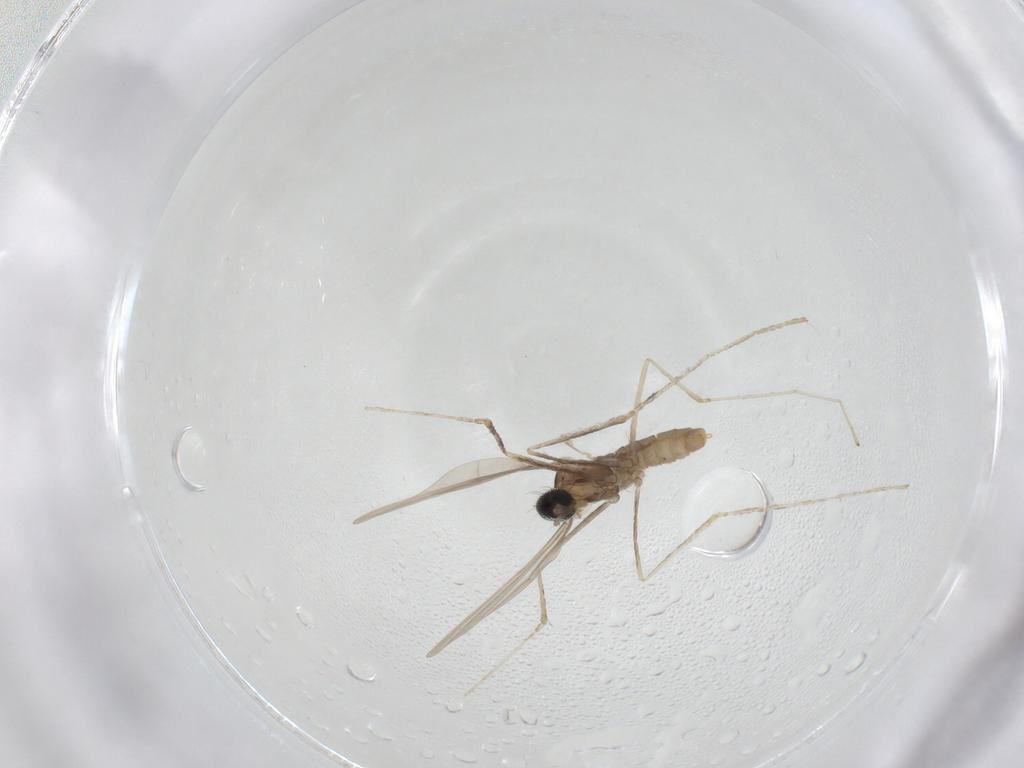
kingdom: Animalia
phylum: Arthropoda
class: Insecta
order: Diptera
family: Cecidomyiidae
